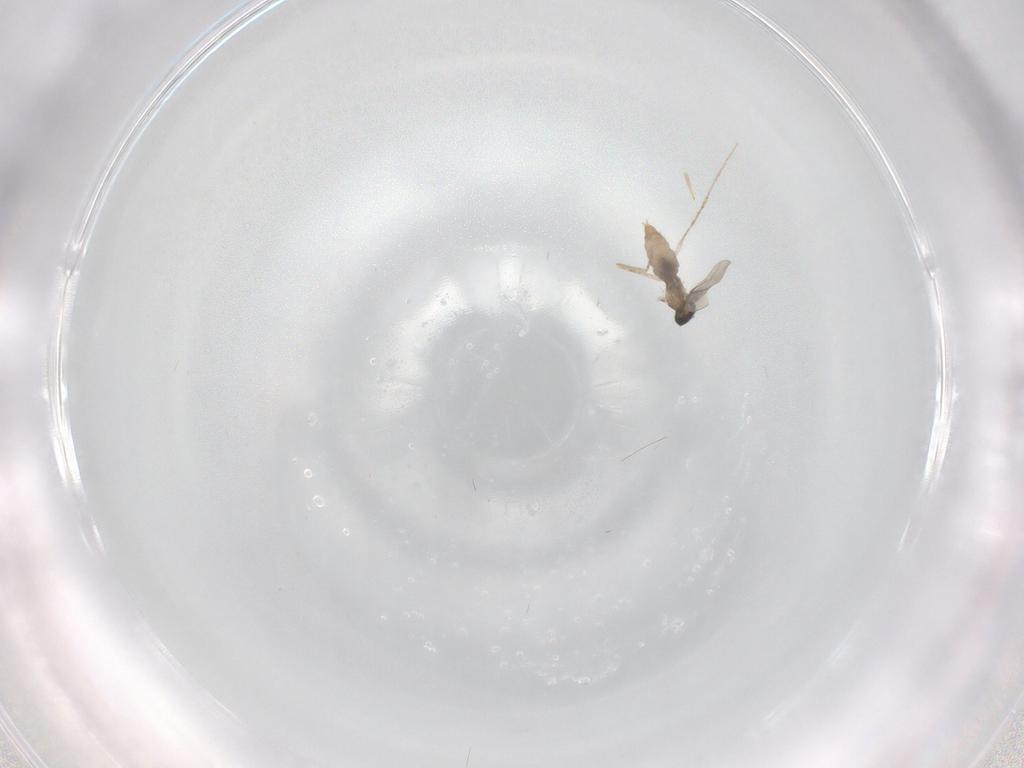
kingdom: Animalia
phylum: Arthropoda
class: Insecta
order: Diptera
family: Cecidomyiidae
